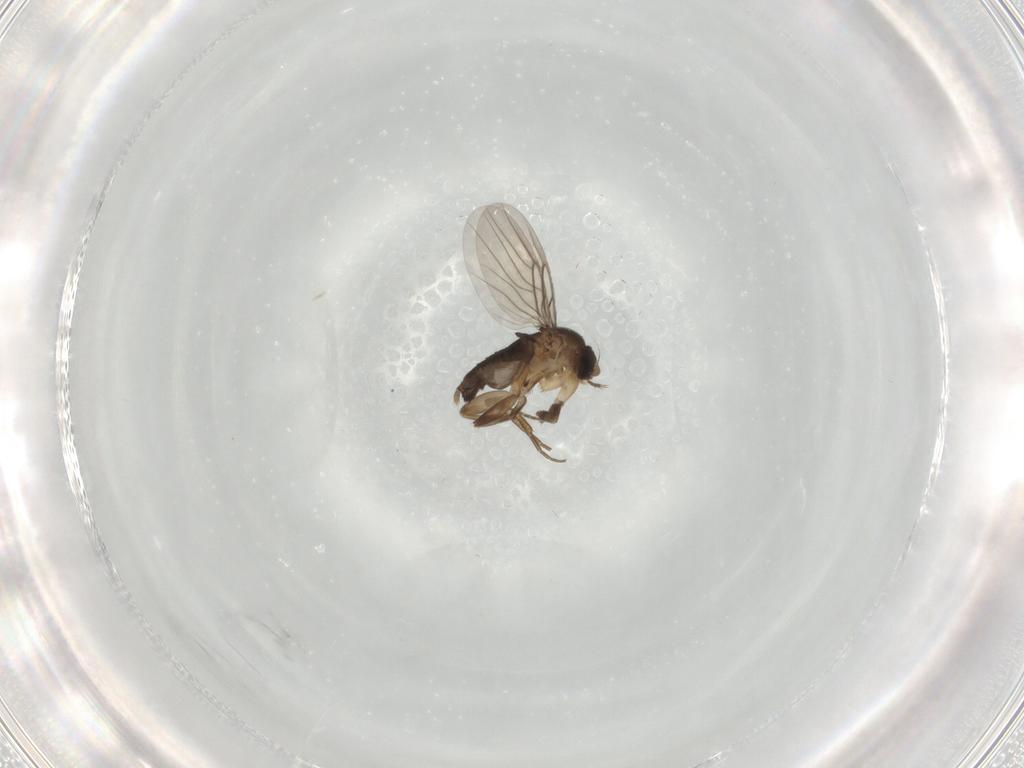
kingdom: Animalia
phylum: Arthropoda
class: Insecta
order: Diptera
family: Phoridae
